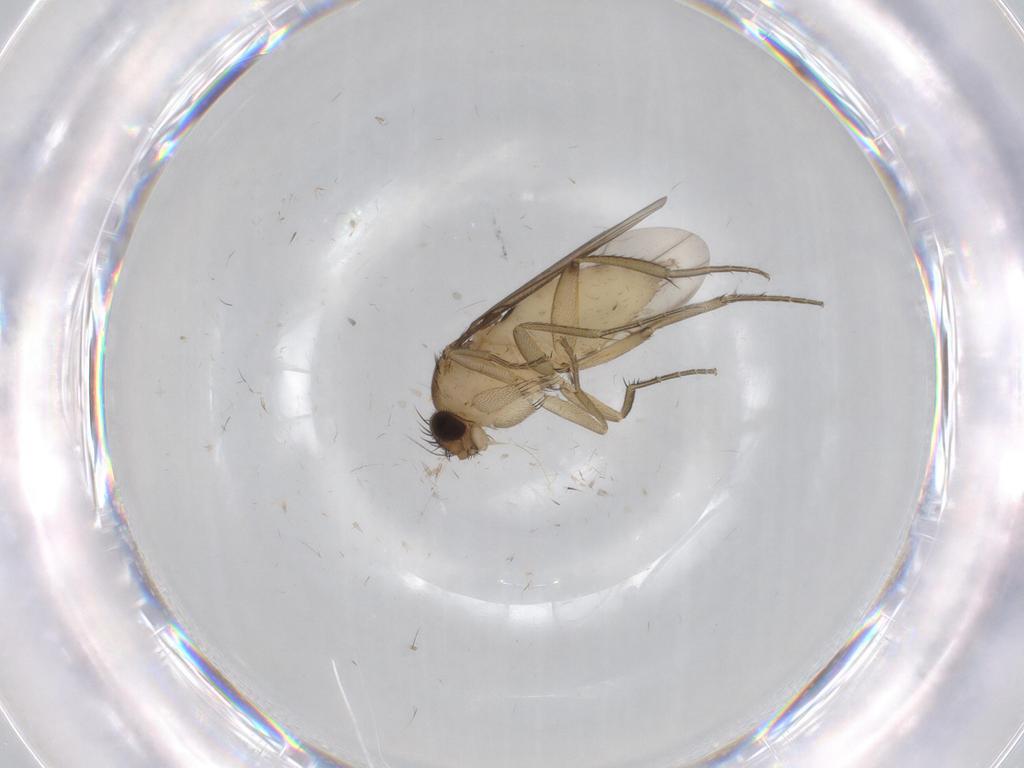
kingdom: Animalia
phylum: Arthropoda
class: Insecta
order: Diptera
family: Phoridae
